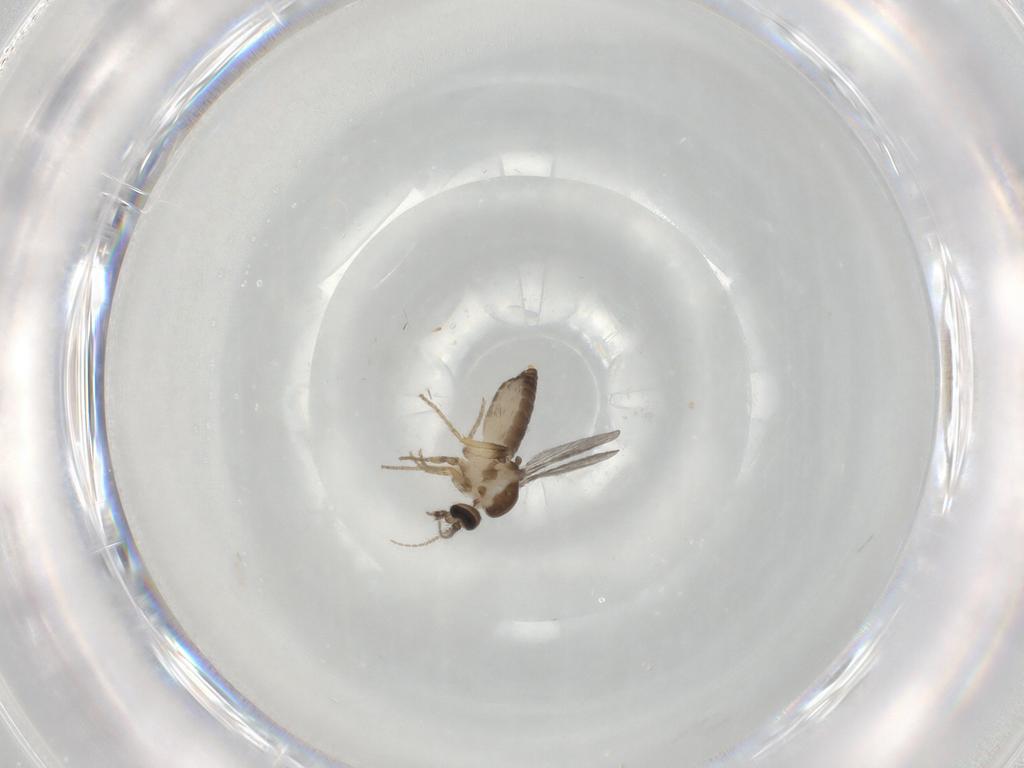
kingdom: Animalia
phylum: Arthropoda
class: Insecta
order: Diptera
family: Ceratopogonidae
